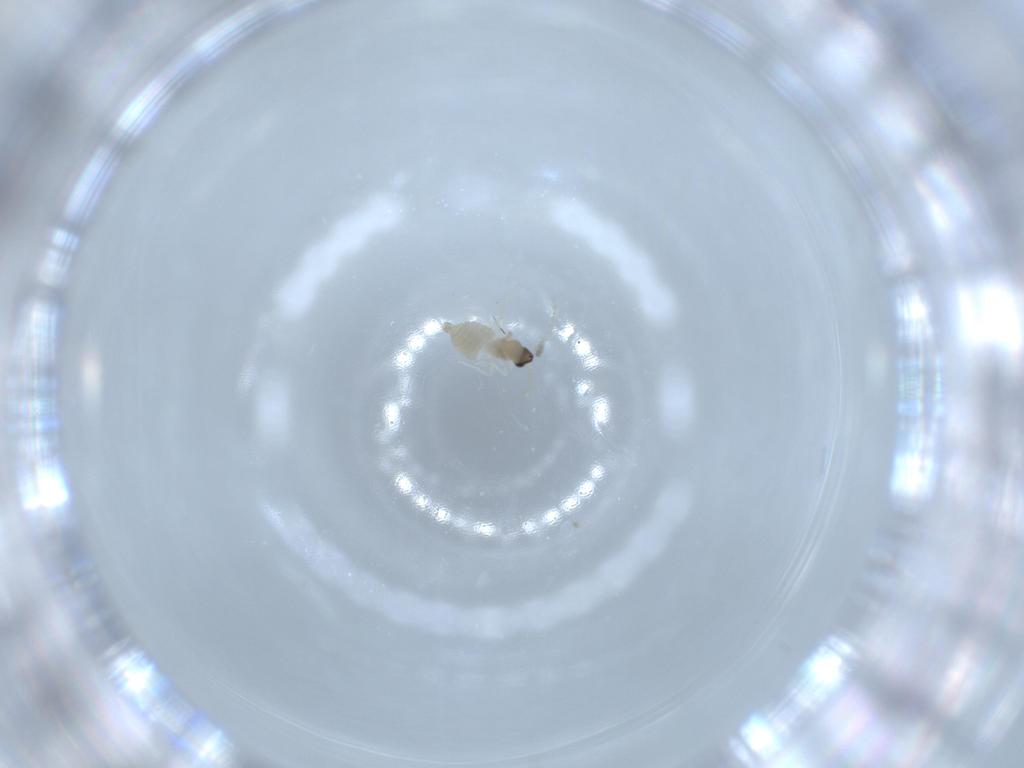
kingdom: Animalia
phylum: Arthropoda
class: Insecta
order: Diptera
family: Cecidomyiidae
